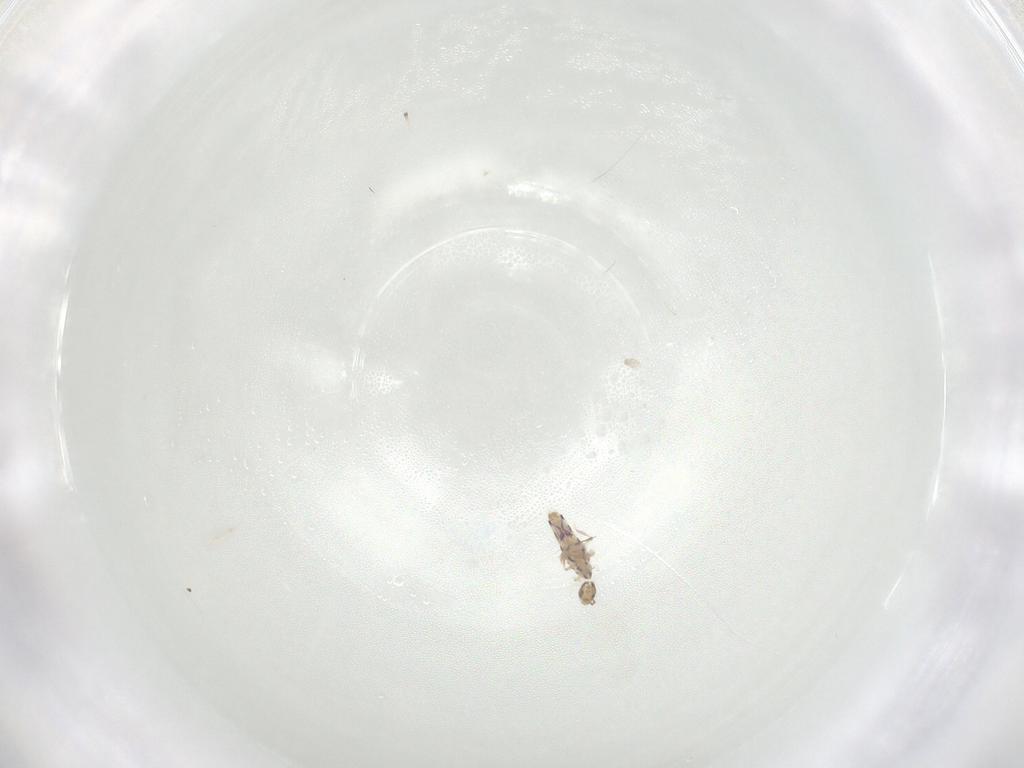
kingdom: Animalia
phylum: Arthropoda
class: Collembola
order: Entomobryomorpha
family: Entomobryidae
